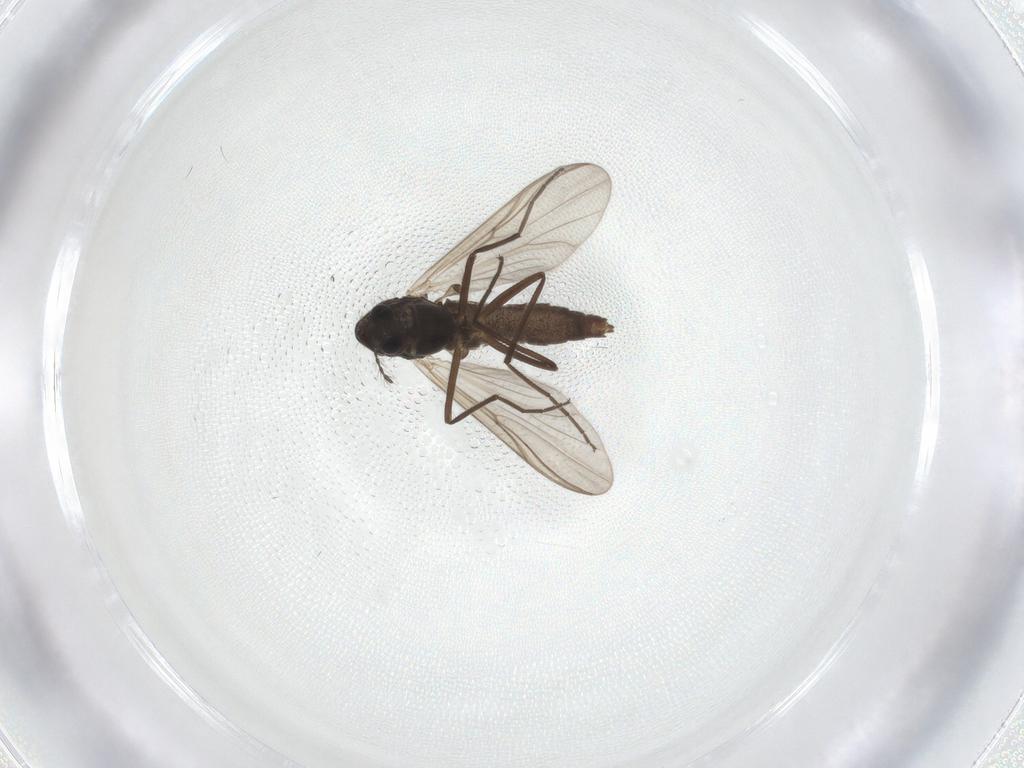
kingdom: Animalia
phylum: Arthropoda
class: Insecta
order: Diptera
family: Chironomidae
